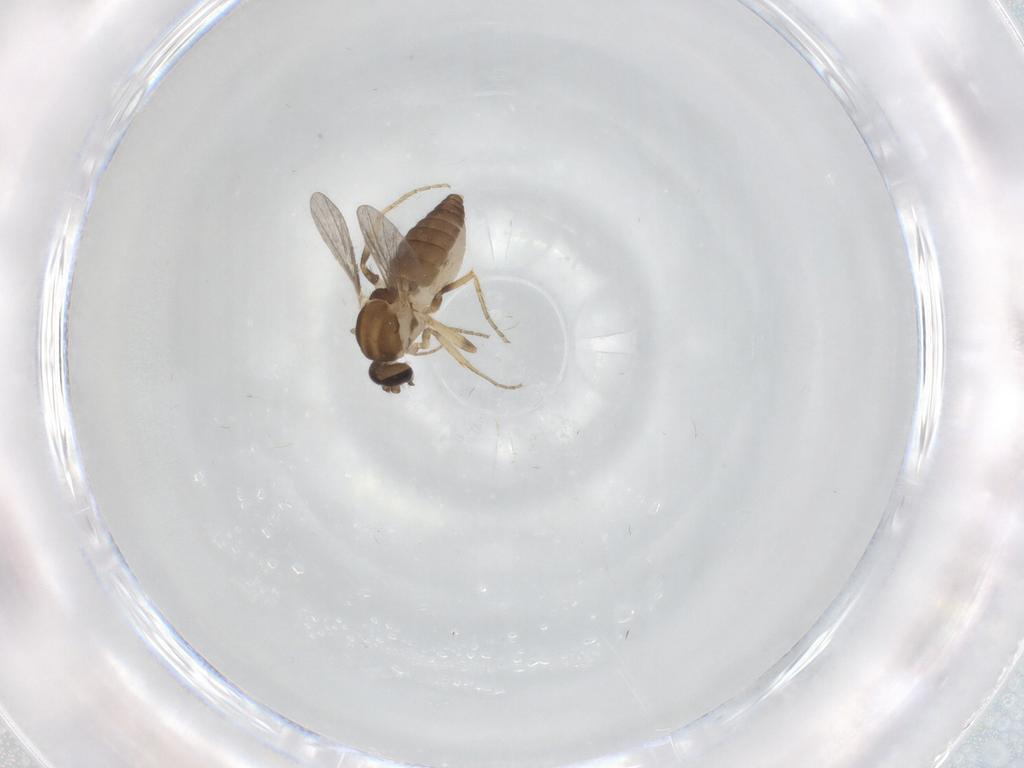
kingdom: Animalia
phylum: Arthropoda
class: Insecta
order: Diptera
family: Ceratopogonidae
